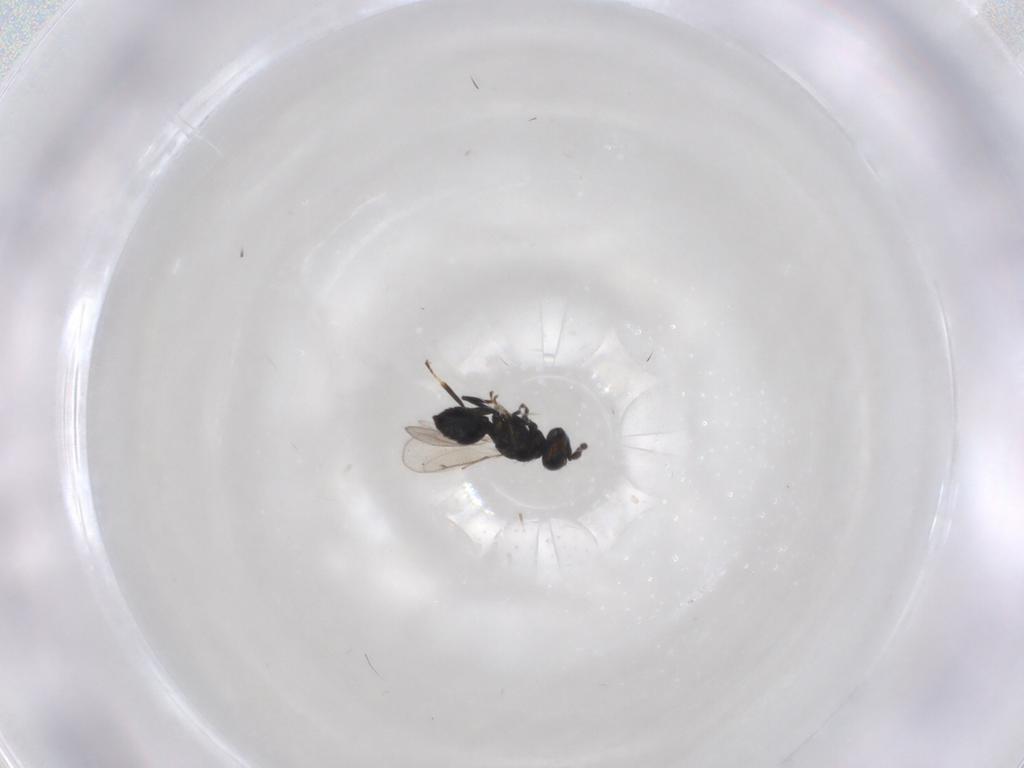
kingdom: Animalia
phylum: Arthropoda
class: Insecta
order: Hymenoptera
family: Eulophidae
